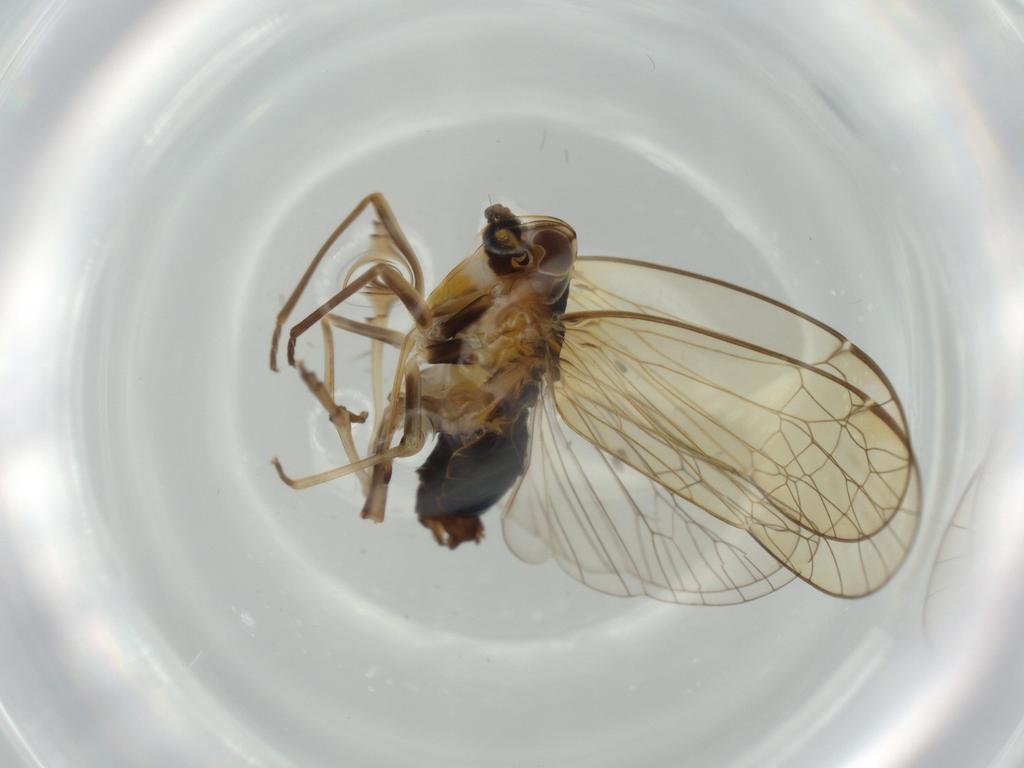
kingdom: Animalia
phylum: Arthropoda
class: Insecta
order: Hemiptera
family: Kinnaridae
